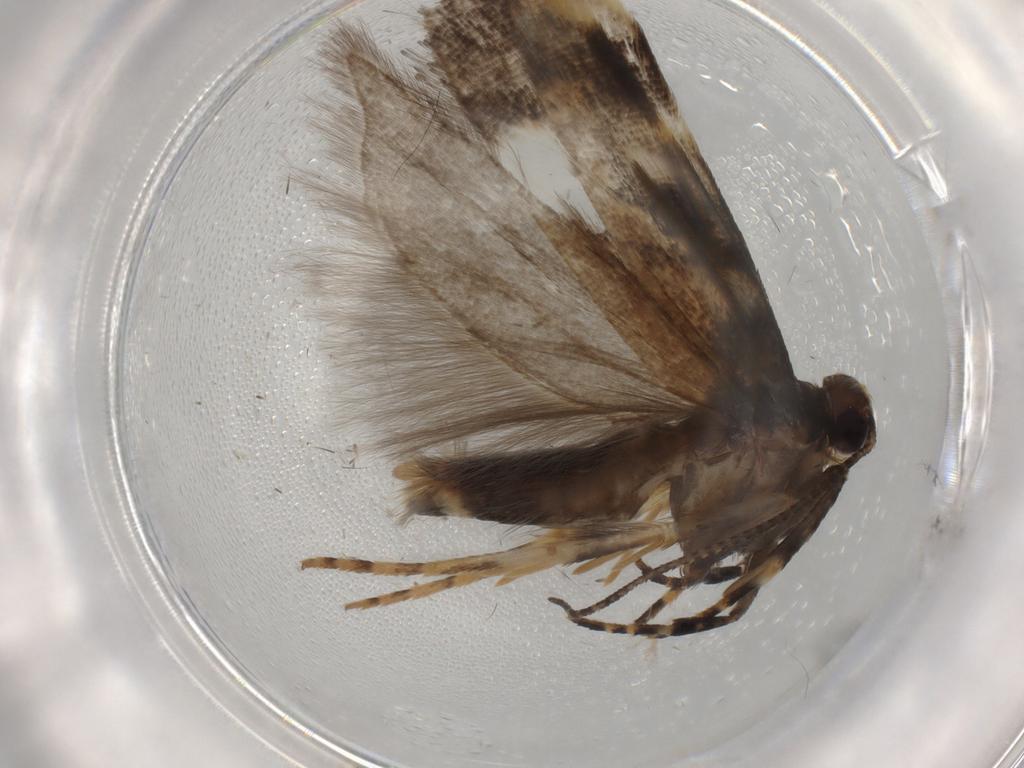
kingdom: Animalia
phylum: Arthropoda
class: Insecta
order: Lepidoptera
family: Gelechiidae
